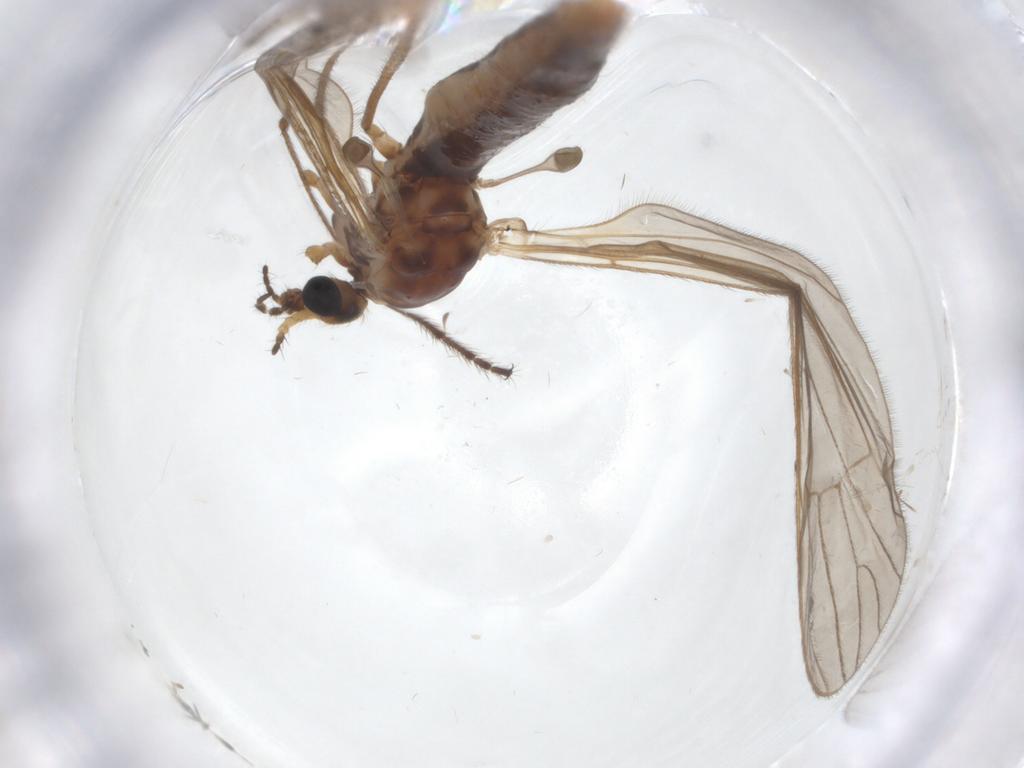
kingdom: Animalia
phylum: Arthropoda
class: Insecta
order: Diptera
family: Limoniidae
